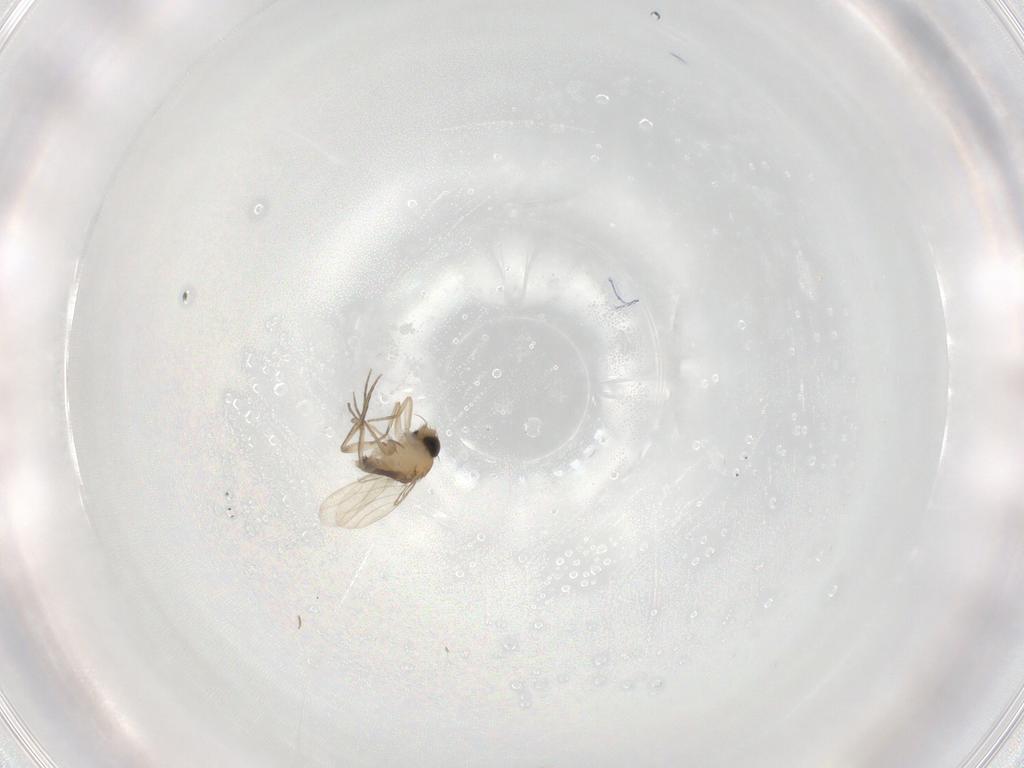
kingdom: Animalia
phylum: Arthropoda
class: Insecta
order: Diptera
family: Phoridae
